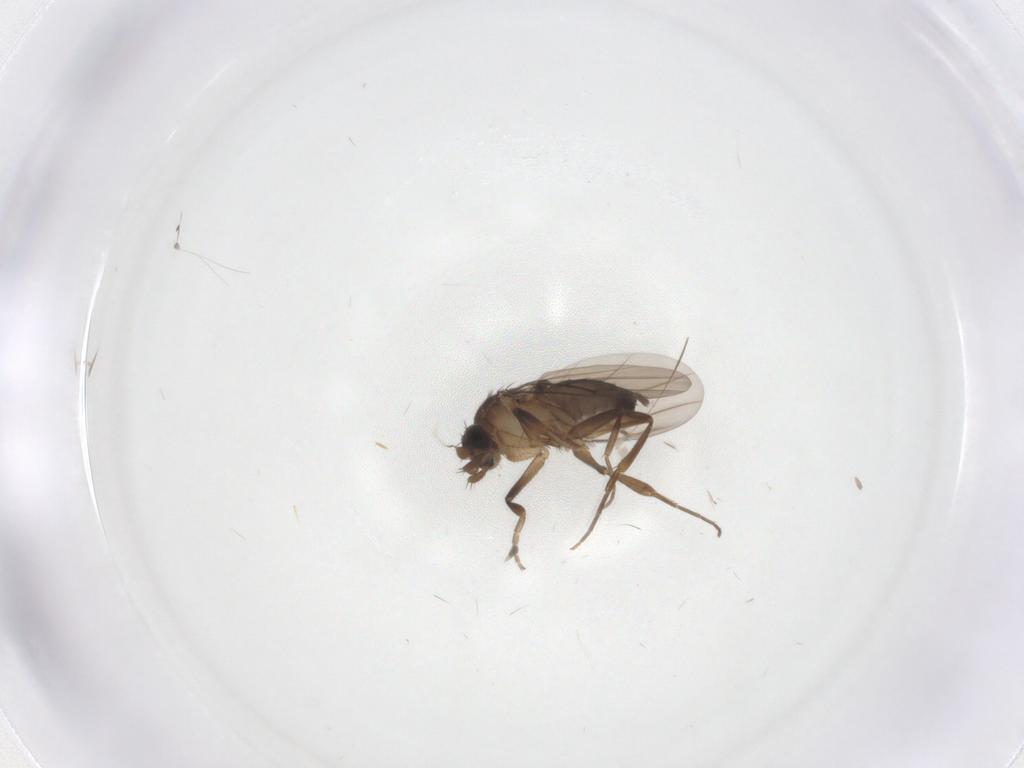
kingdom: Animalia
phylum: Arthropoda
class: Insecta
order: Diptera
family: Phoridae
